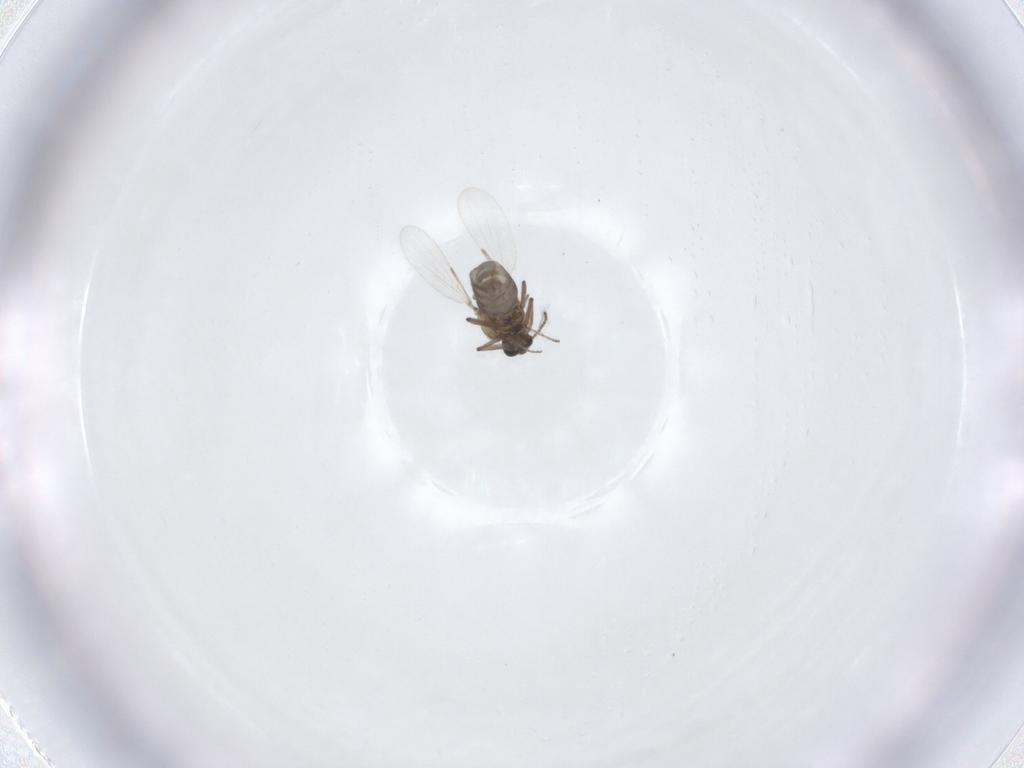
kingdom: Animalia
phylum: Arthropoda
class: Insecta
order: Diptera
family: Ceratopogonidae
